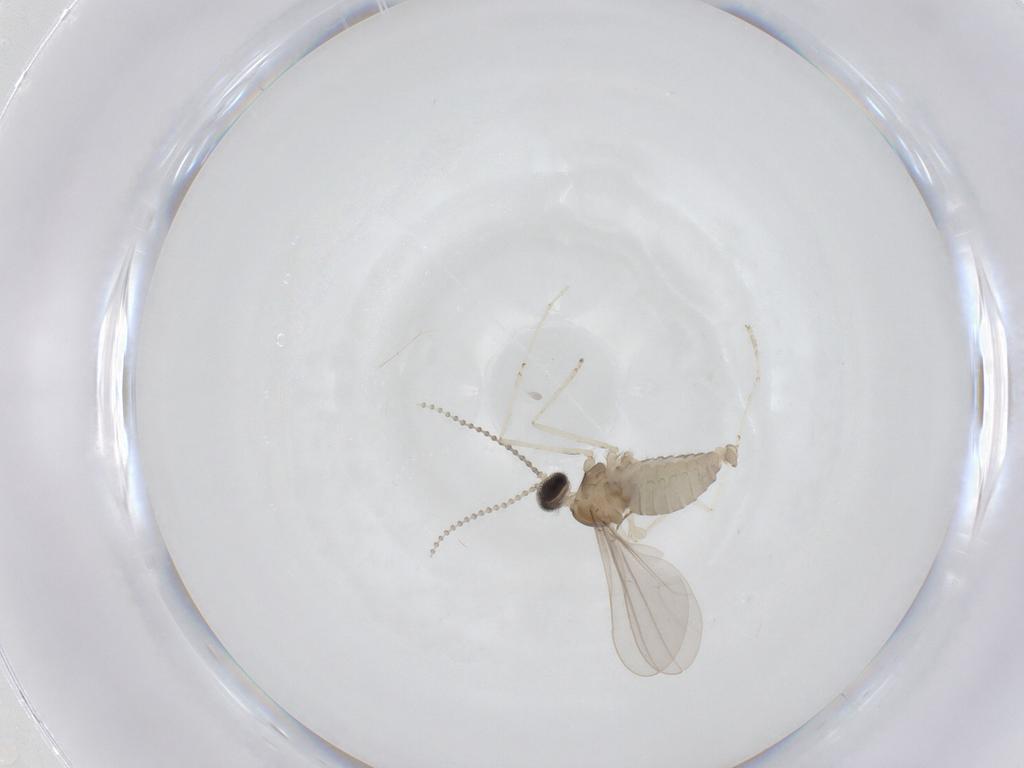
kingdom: Animalia
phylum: Arthropoda
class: Insecta
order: Diptera
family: Cecidomyiidae
